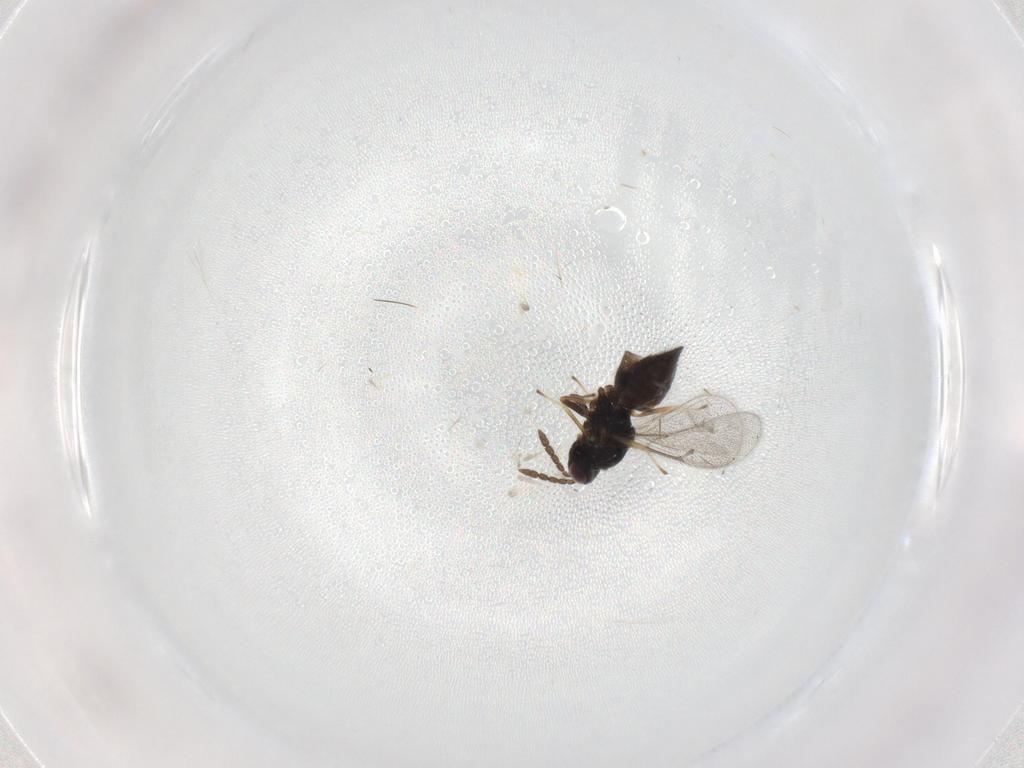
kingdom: Animalia
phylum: Arthropoda
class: Insecta
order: Hymenoptera
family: Eulophidae
